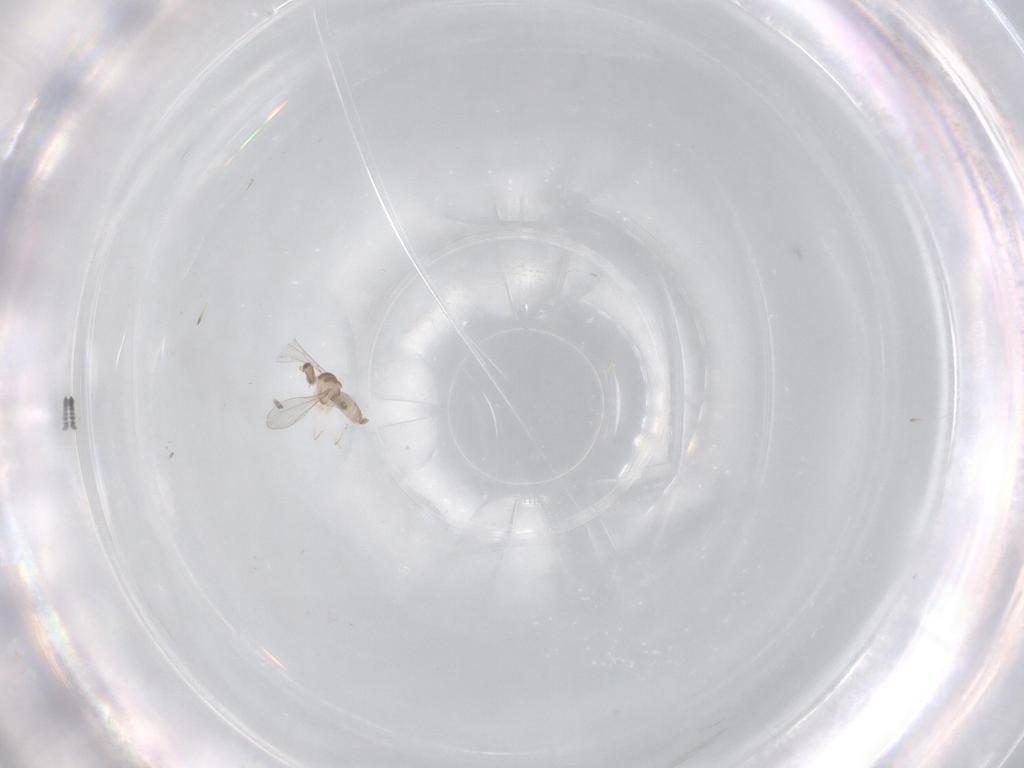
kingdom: Animalia
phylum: Arthropoda
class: Insecta
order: Diptera
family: Cecidomyiidae
